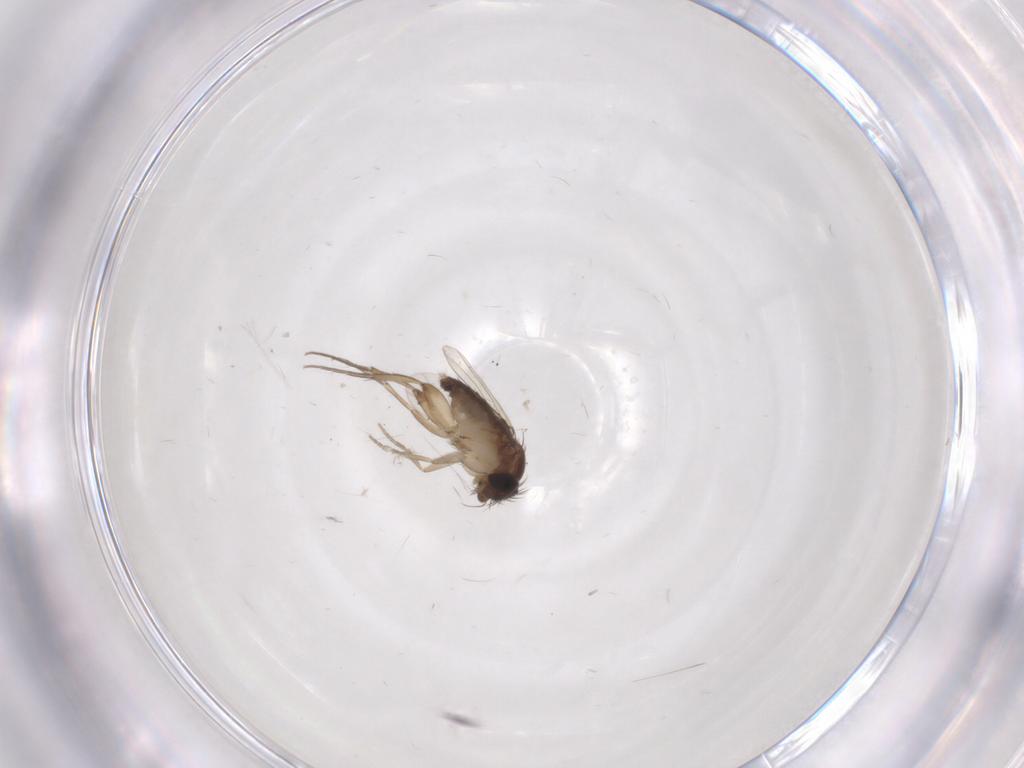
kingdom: Animalia
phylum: Arthropoda
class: Insecta
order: Diptera
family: Phoridae
